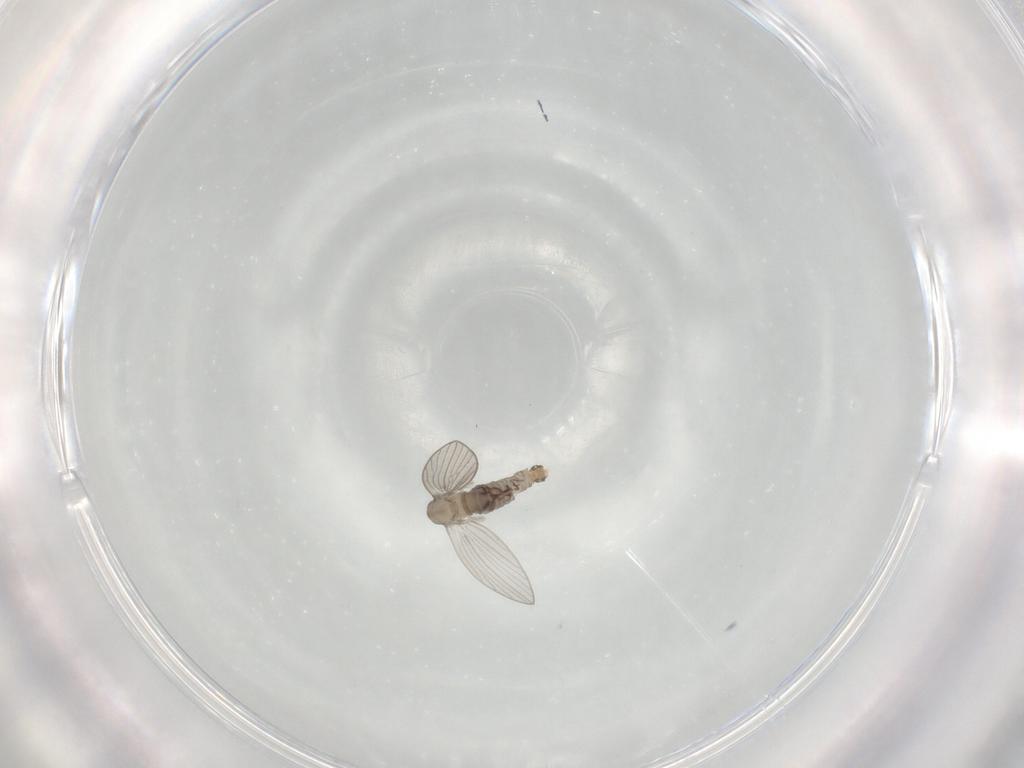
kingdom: Animalia
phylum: Arthropoda
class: Insecta
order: Diptera
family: Psychodidae
